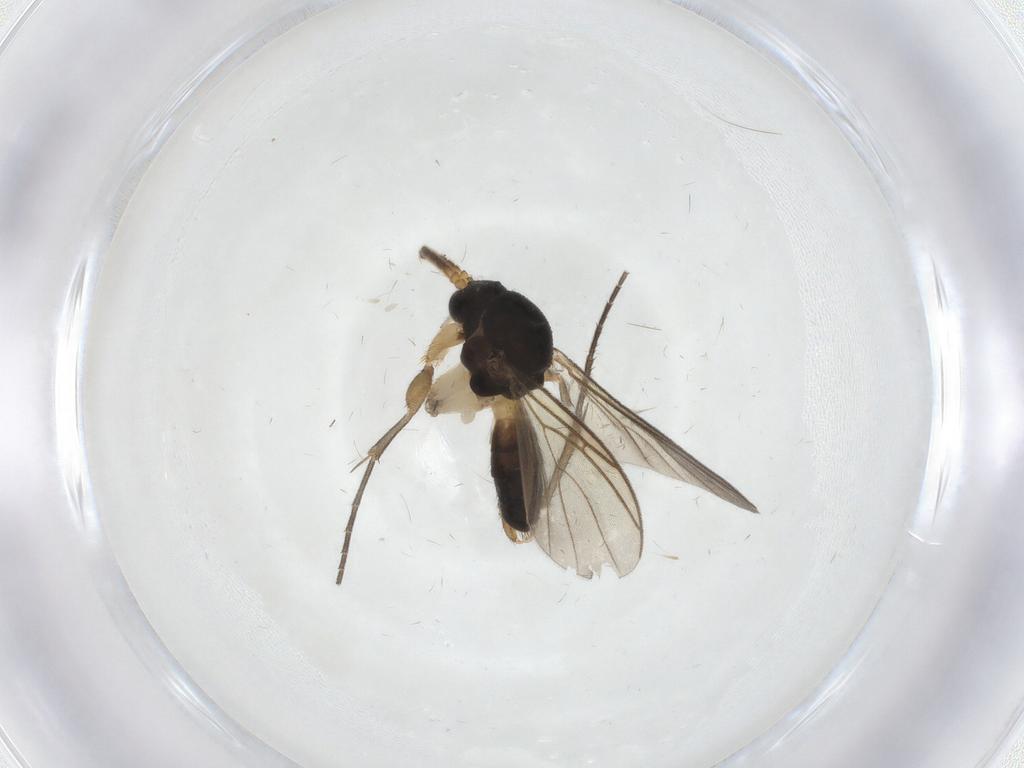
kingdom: Animalia
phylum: Arthropoda
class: Insecta
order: Diptera
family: Cecidomyiidae
